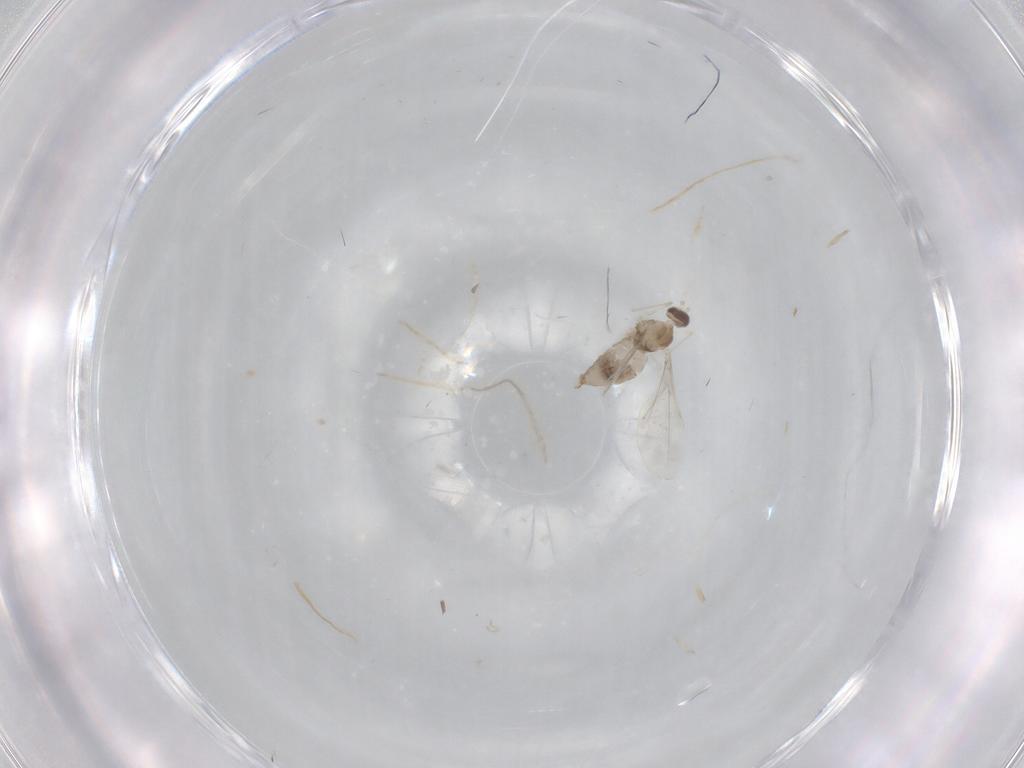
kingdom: Animalia
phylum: Arthropoda
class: Insecta
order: Diptera
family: Cecidomyiidae
